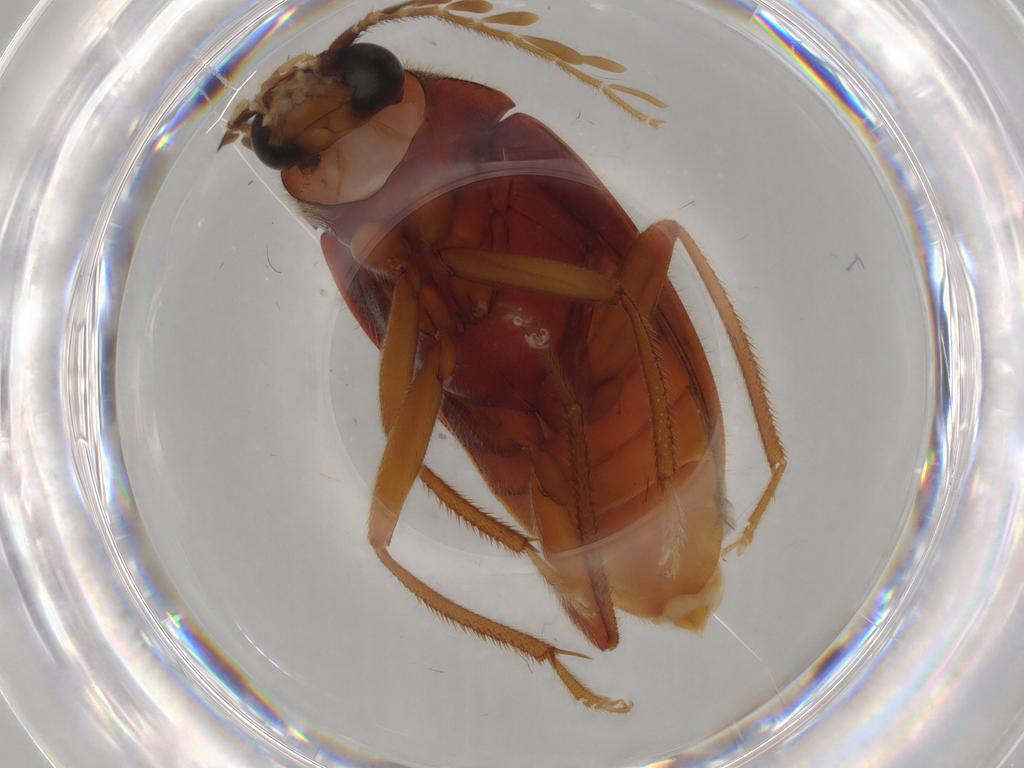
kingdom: Animalia
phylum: Arthropoda
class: Insecta
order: Coleoptera
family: Ptilodactylidae
